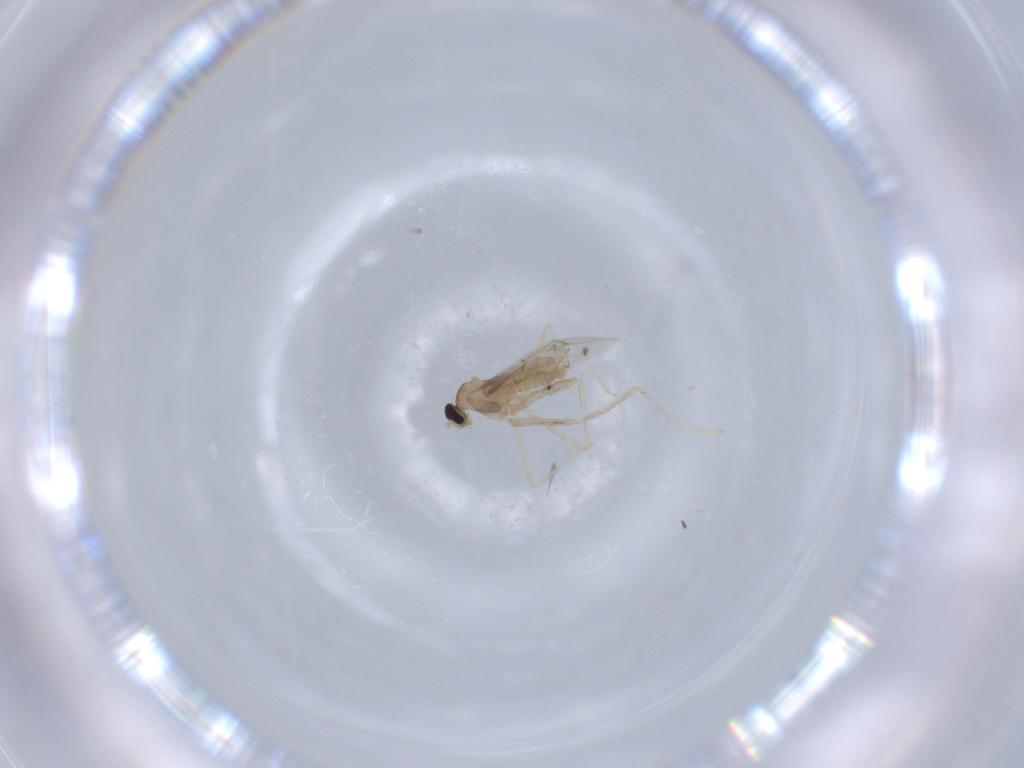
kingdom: Animalia
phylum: Arthropoda
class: Insecta
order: Diptera
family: Cecidomyiidae
